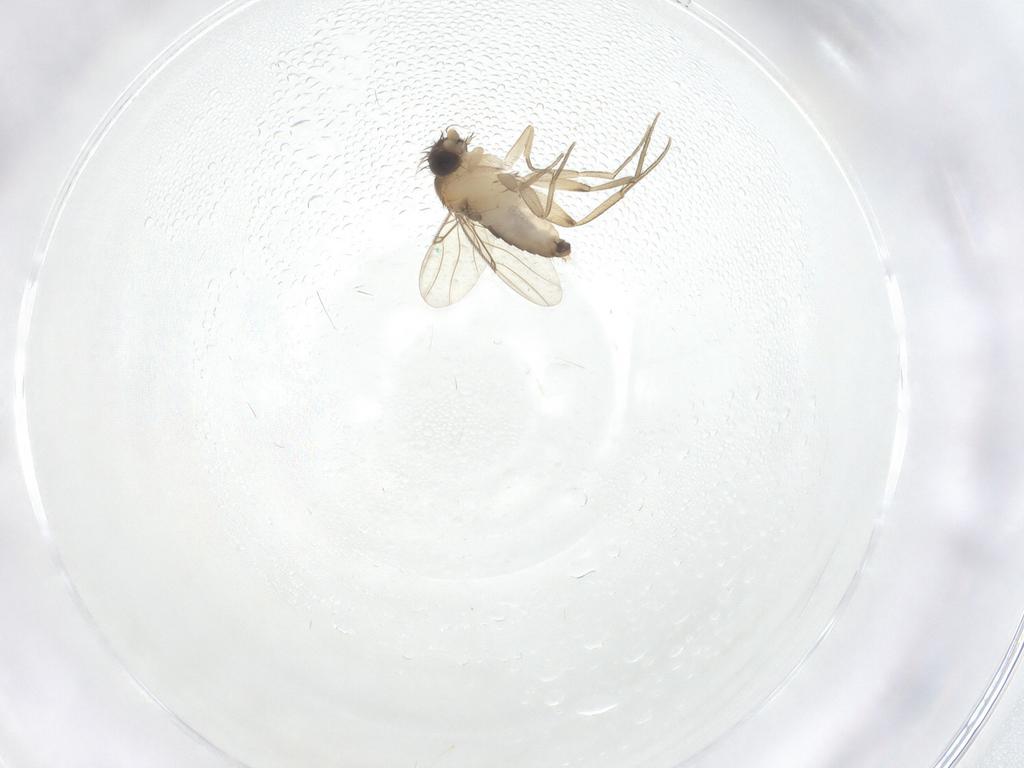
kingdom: Animalia
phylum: Arthropoda
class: Insecta
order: Diptera
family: Phoridae
